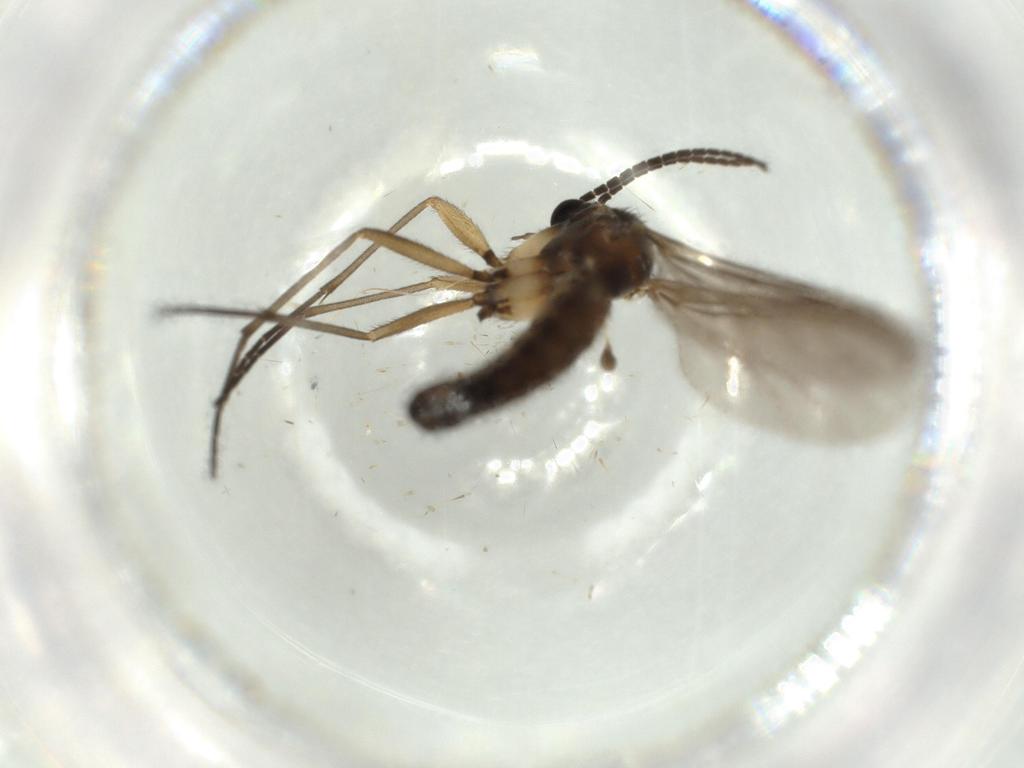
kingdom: Animalia
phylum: Arthropoda
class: Insecta
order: Diptera
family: Sciaridae
